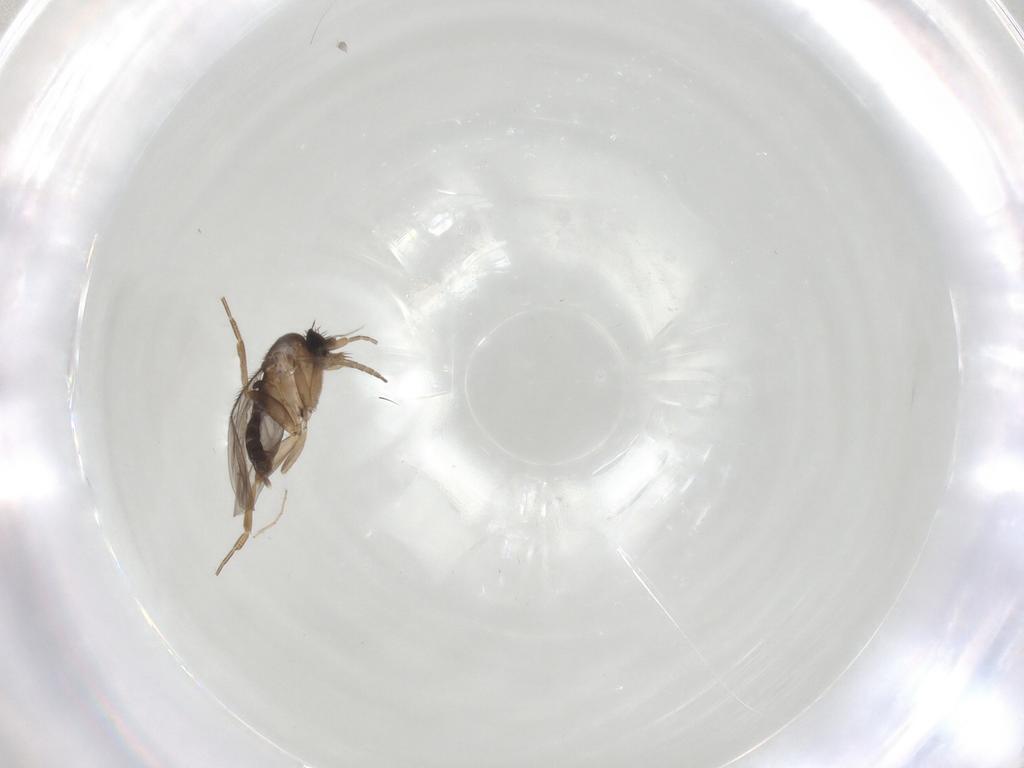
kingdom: Animalia
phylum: Arthropoda
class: Insecta
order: Diptera
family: Chironomidae
